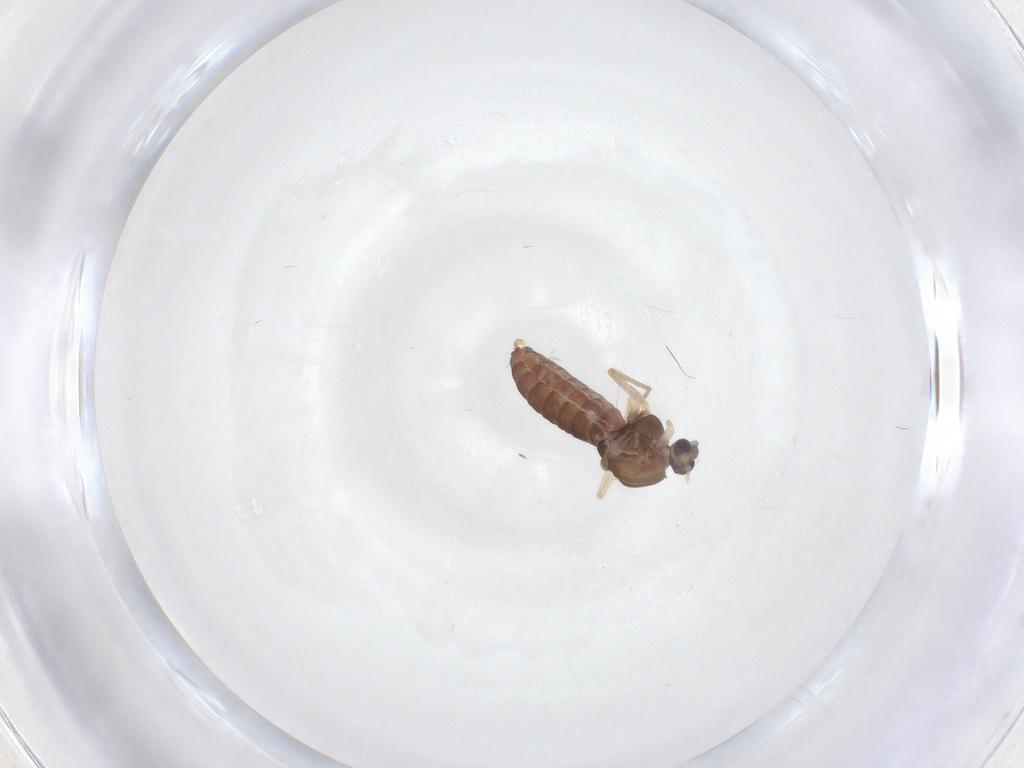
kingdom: Animalia
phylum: Arthropoda
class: Insecta
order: Diptera
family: Chironomidae
